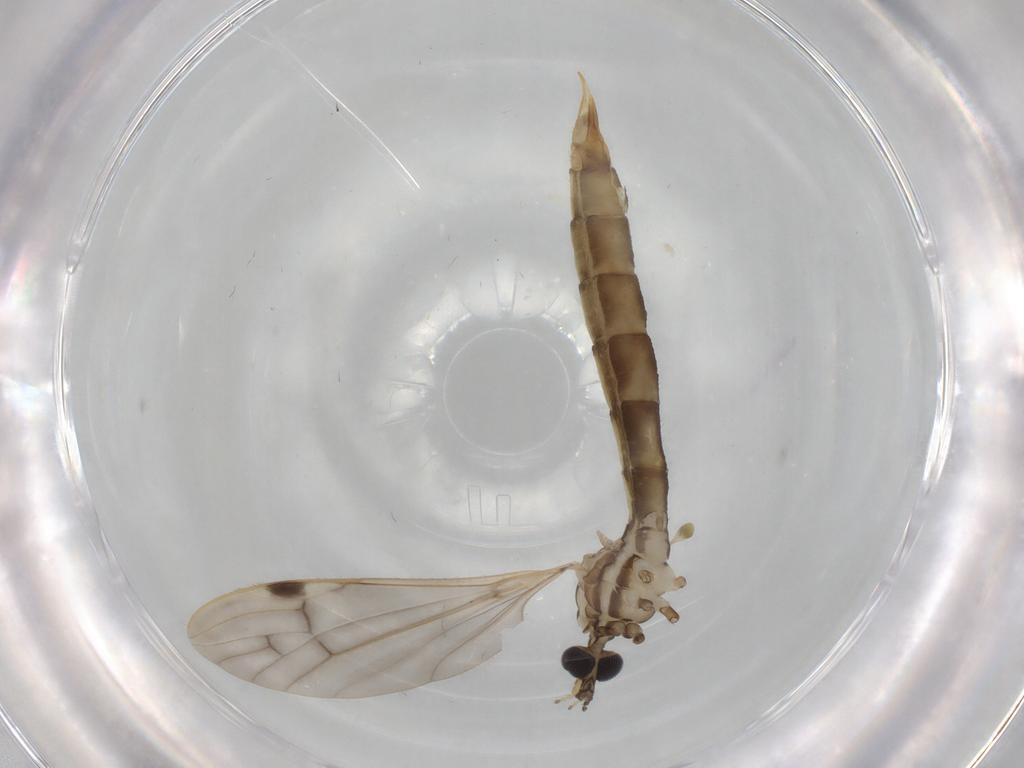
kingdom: Animalia
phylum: Arthropoda
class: Insecta
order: Diptera
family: Limoniidae
